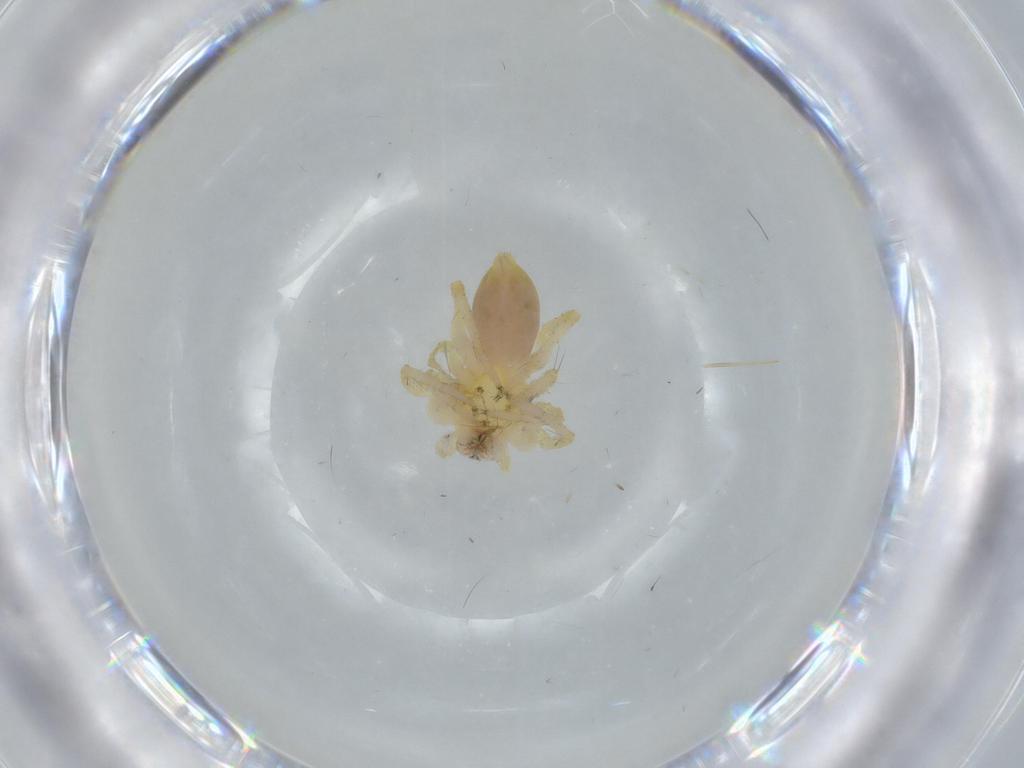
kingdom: Animalia
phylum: Arthropoda
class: Arachnida
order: Araneae
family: Anyphaenidae
